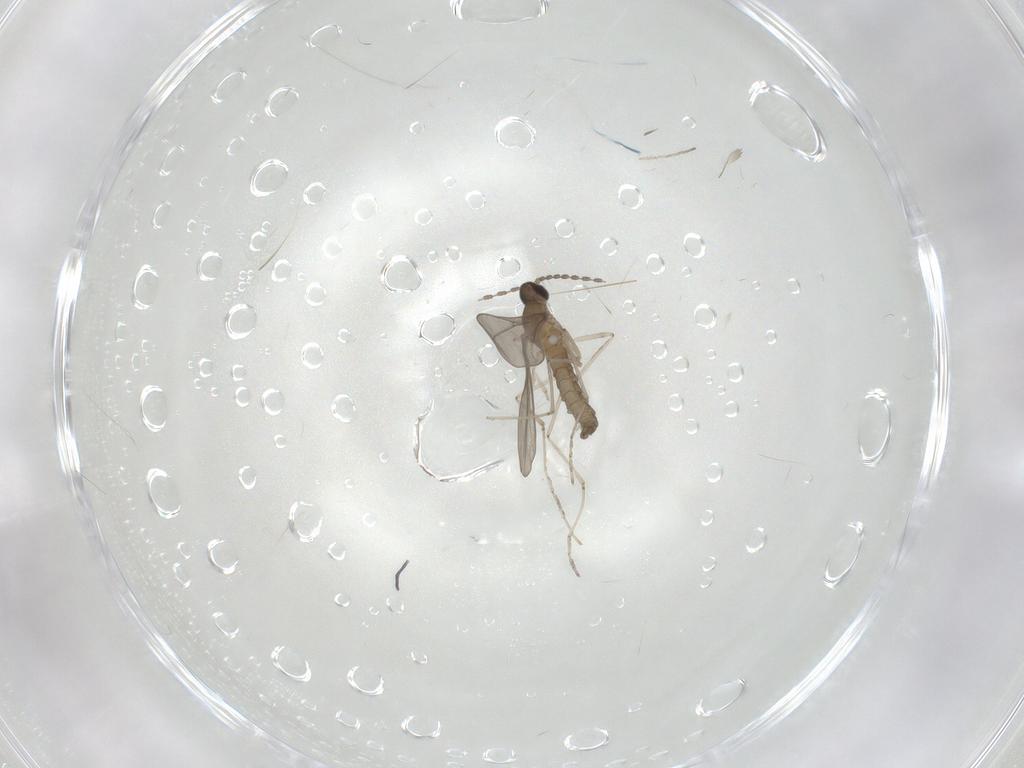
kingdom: Animalia
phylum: Arthropoda
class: Insecta
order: Diptera
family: Cecidomyiidae
